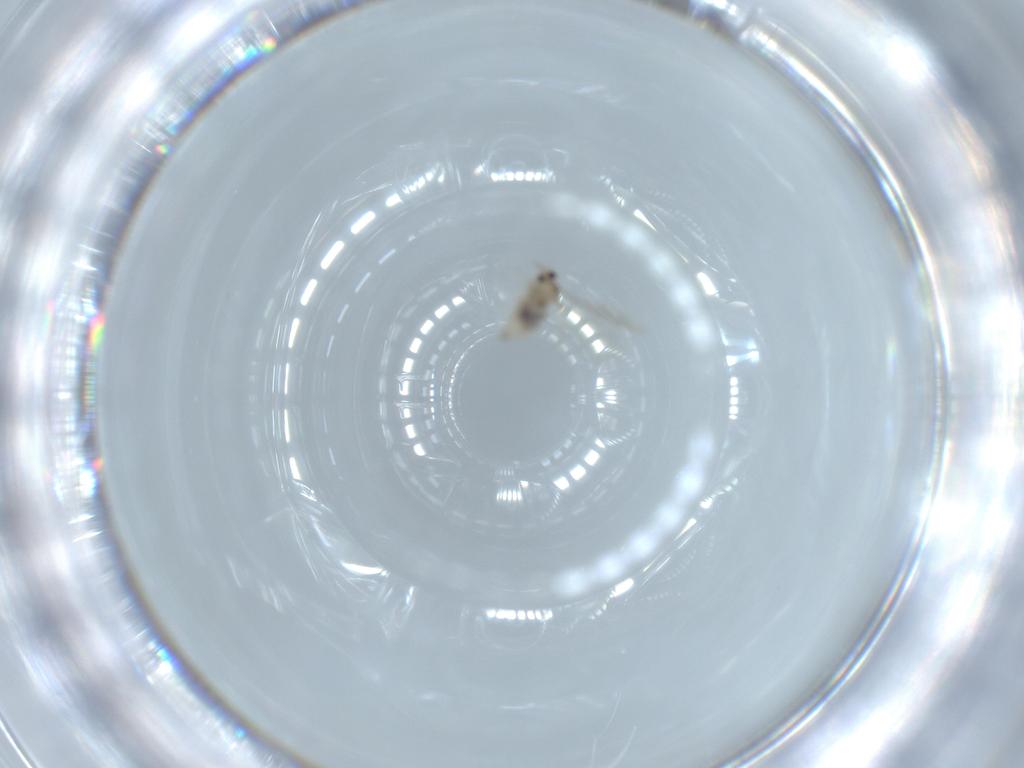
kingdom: Animalia
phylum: Arthropoda
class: Insecta
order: Diptera
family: Cecidomyiidae
